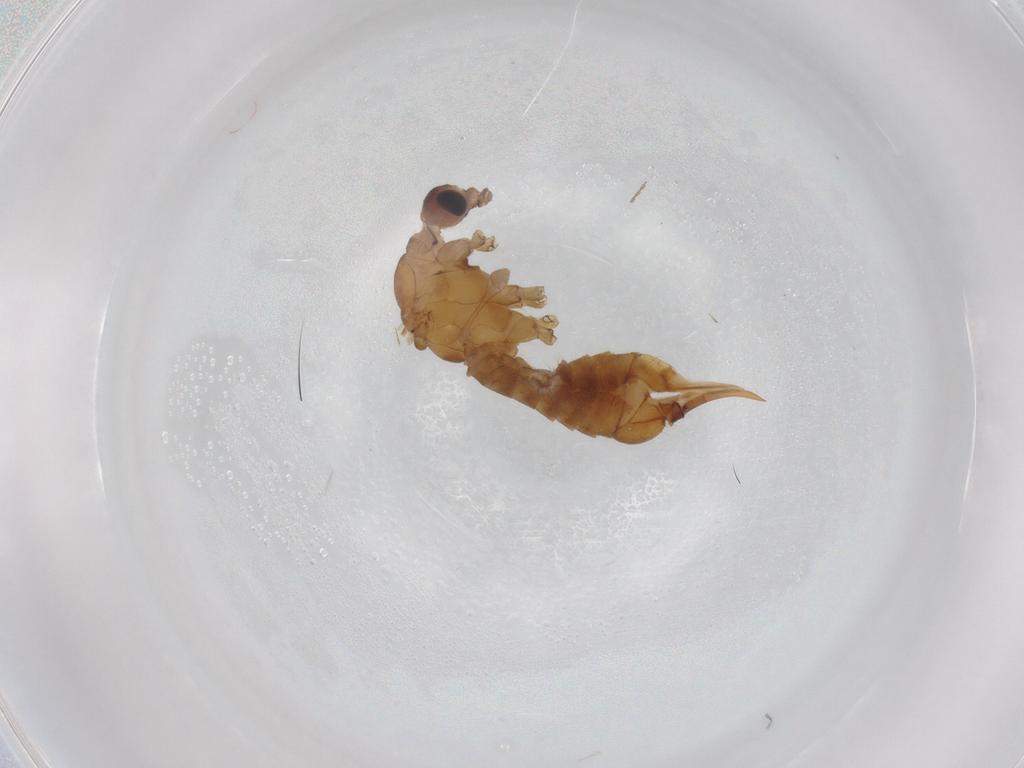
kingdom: Animalia
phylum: Arthropoda
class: Insecta
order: Diptera
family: Limoniidae
